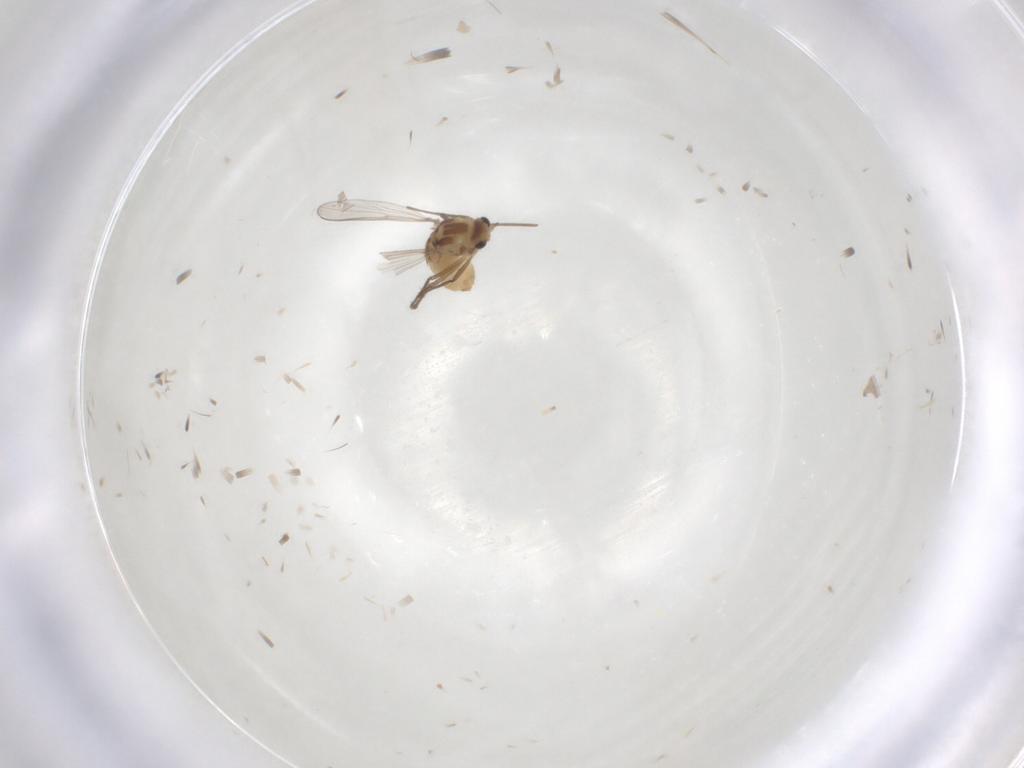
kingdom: Animalia
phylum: Arthropoda
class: Insecta
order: Diptera
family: Chironomidae
